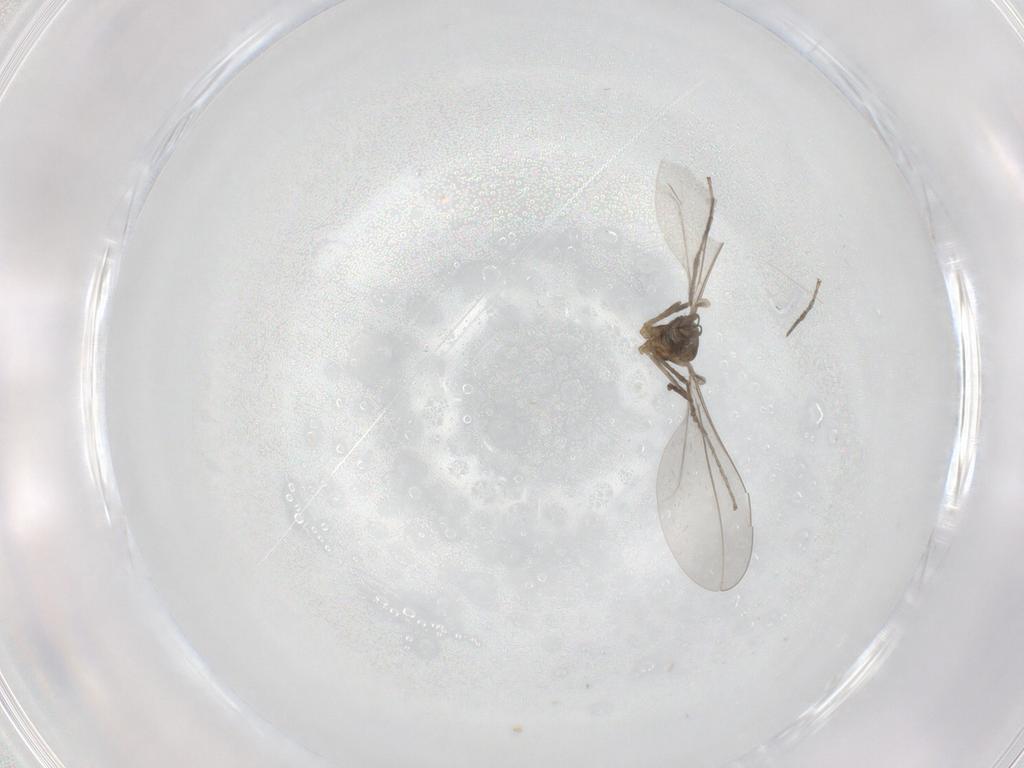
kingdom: Animalia
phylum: Arthropoda
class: Insecta
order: Diptera
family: Cecidomyiidae
